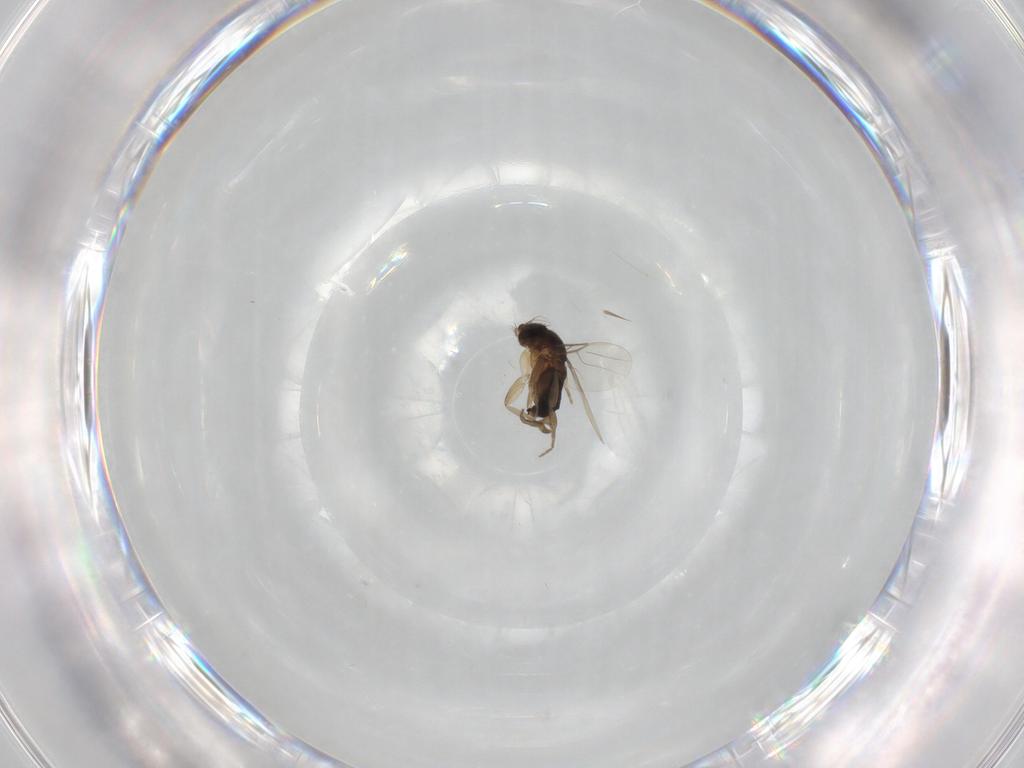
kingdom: Animalia
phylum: Arthropoda
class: Insecta
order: Diptera
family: Phoridae
